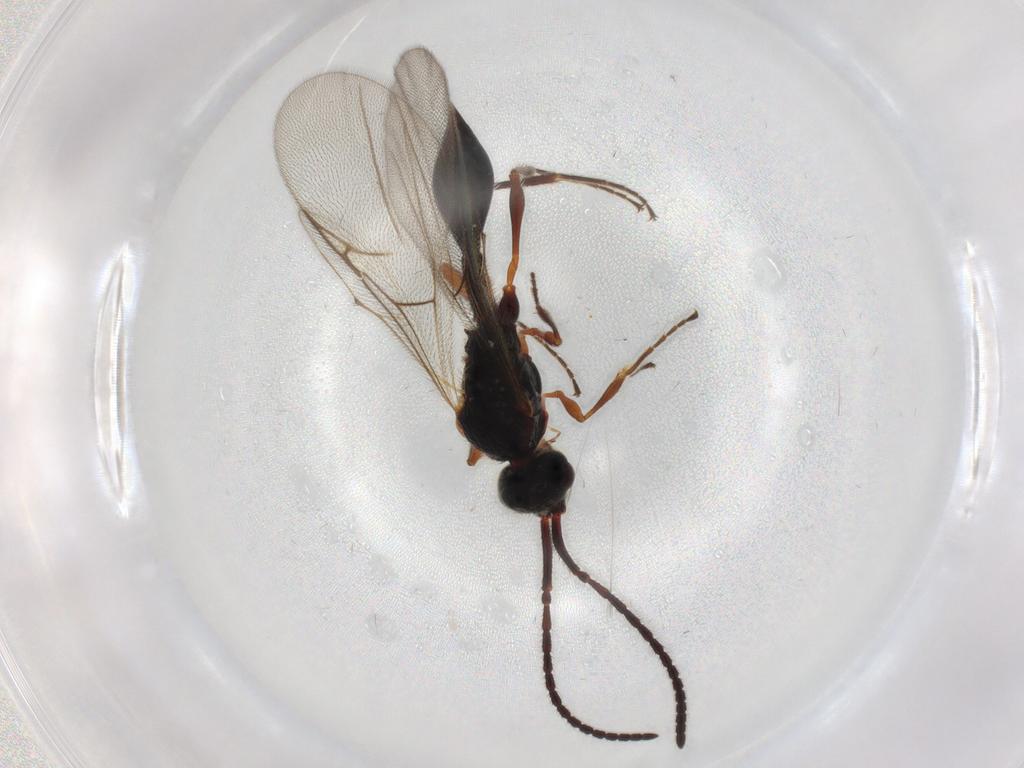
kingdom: Animalia
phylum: Arthropoda
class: Insecta
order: Hymenoptera
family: Diapriidae
